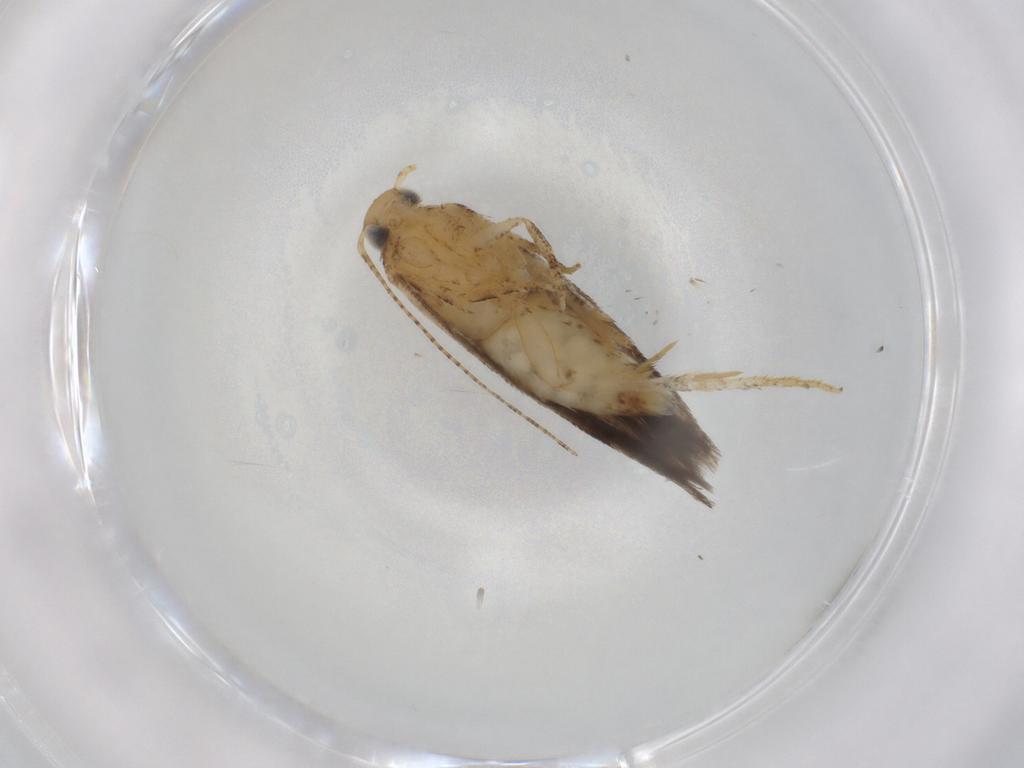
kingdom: Animalia
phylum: Arthropoda
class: Insecta
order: Lepidoptera
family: Gelechiidae
